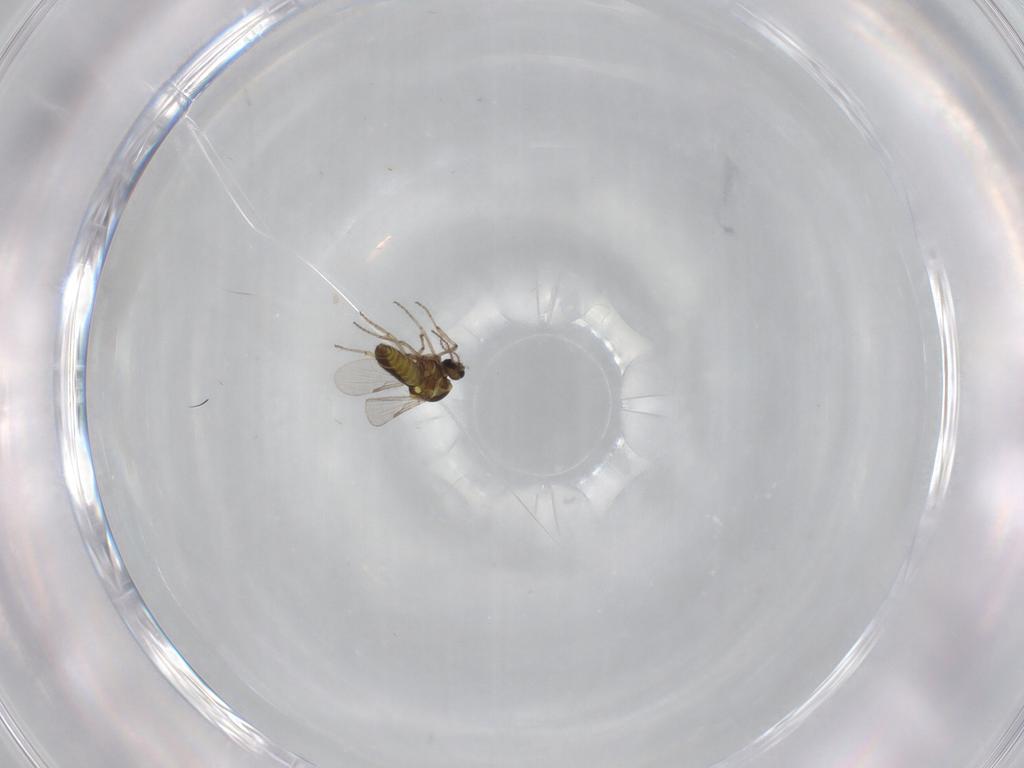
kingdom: Animalia
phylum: Arthropoda
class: Insecta
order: Diptera
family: Ceratopogonidae
